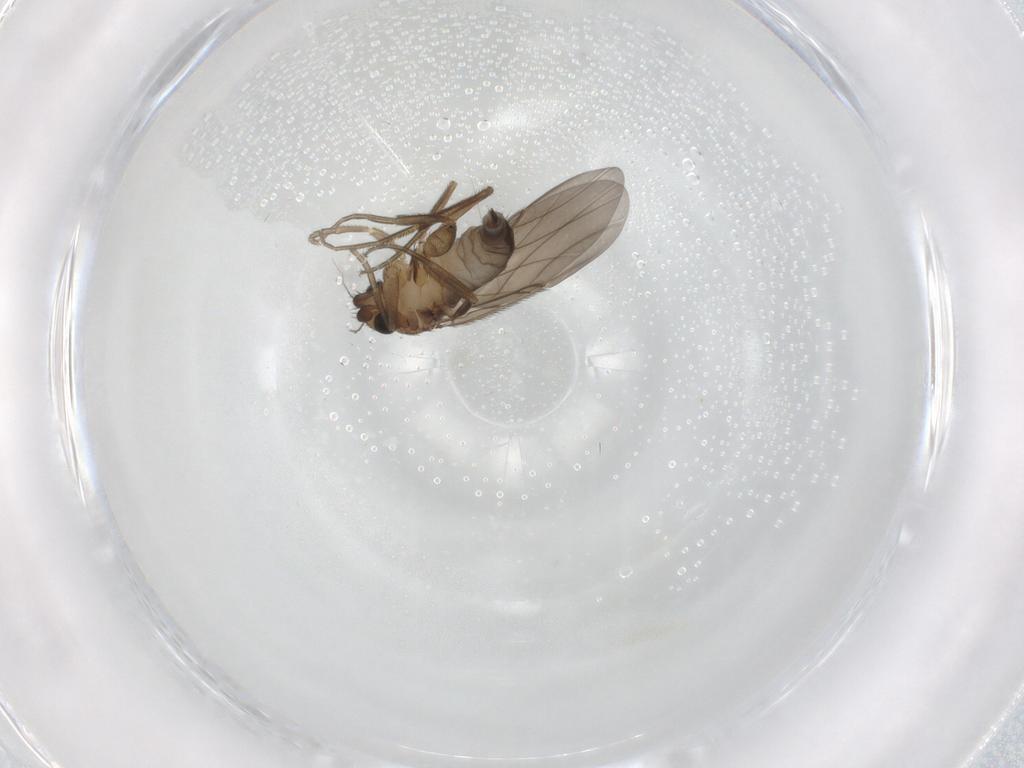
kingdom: Animalia
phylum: Arthropoda
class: Insecta
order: Diptera
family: Phoridae
